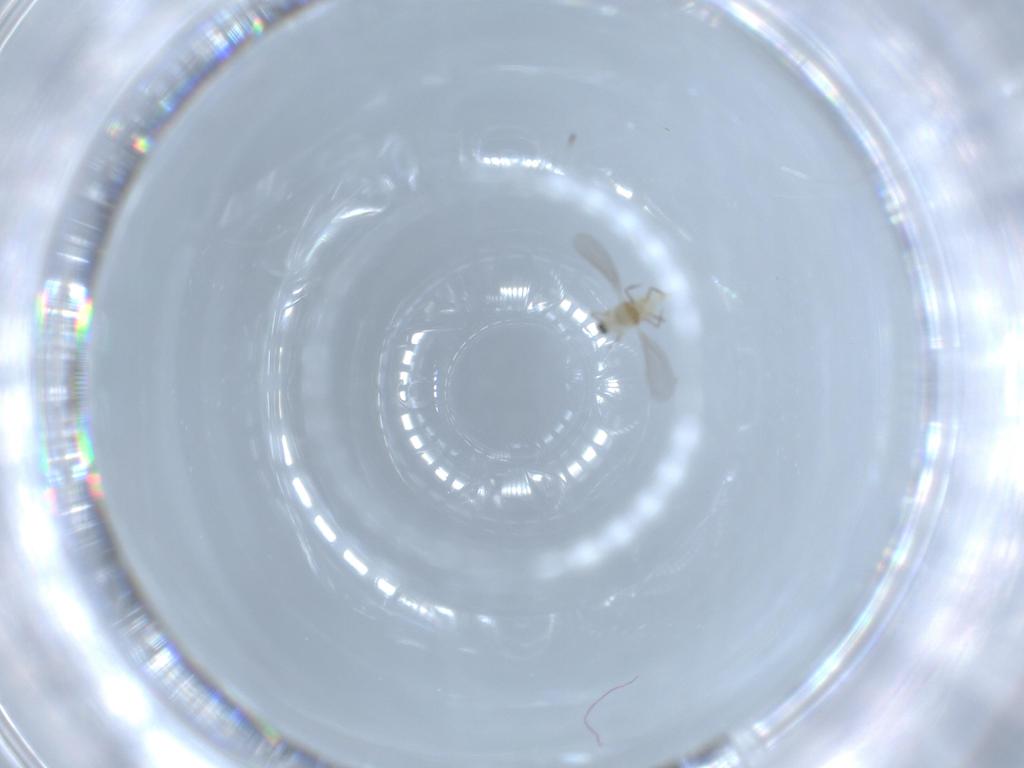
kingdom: Animalia
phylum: Arthropoda
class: Insecta
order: Hemiptera
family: Diaspididae
